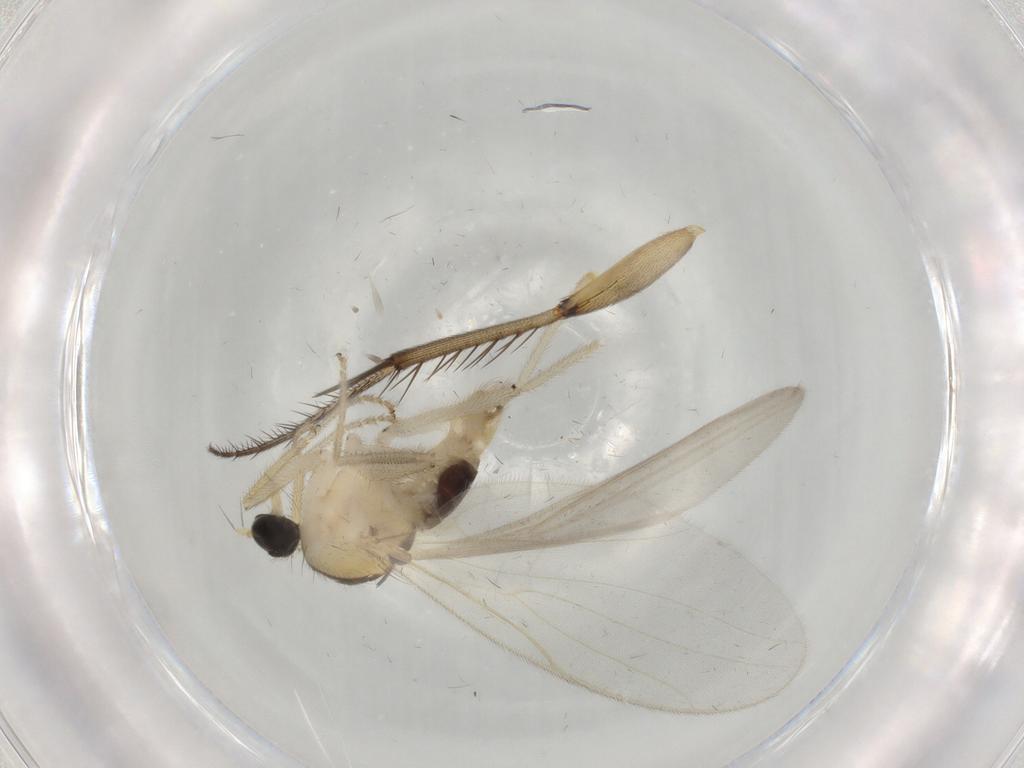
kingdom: Animalia
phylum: Arthropoda
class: Insecta
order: Diptera
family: Hybotidae
